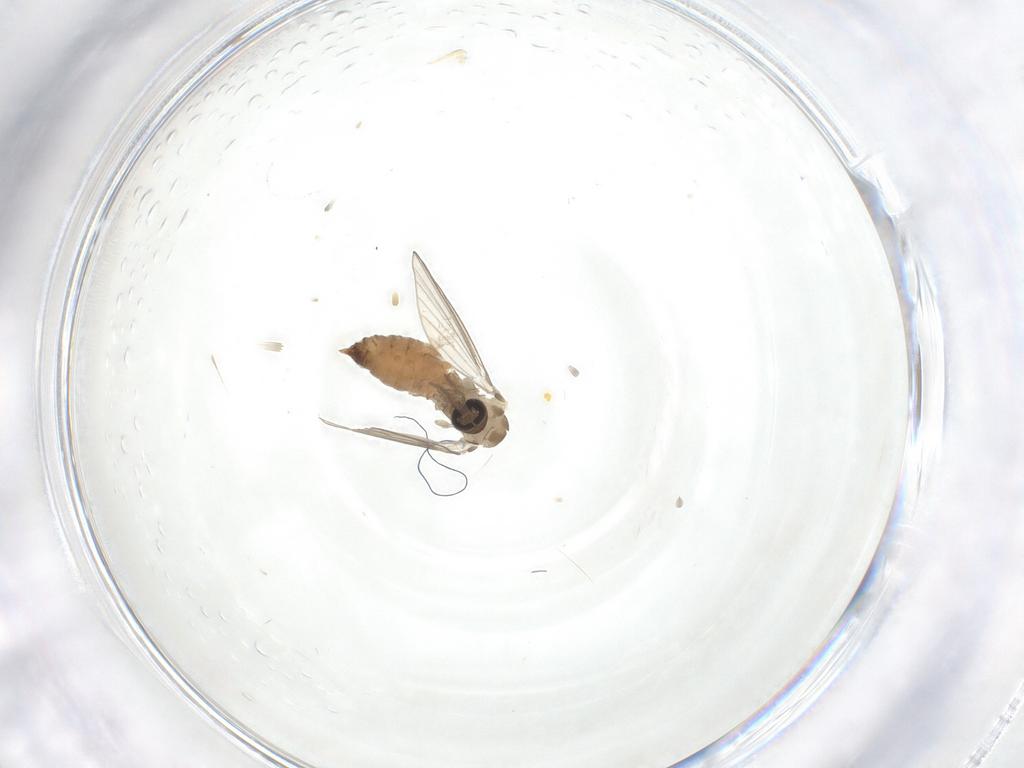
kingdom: Animalia
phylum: Arthropoda
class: Insecta
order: Diptera
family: Psychodidae
